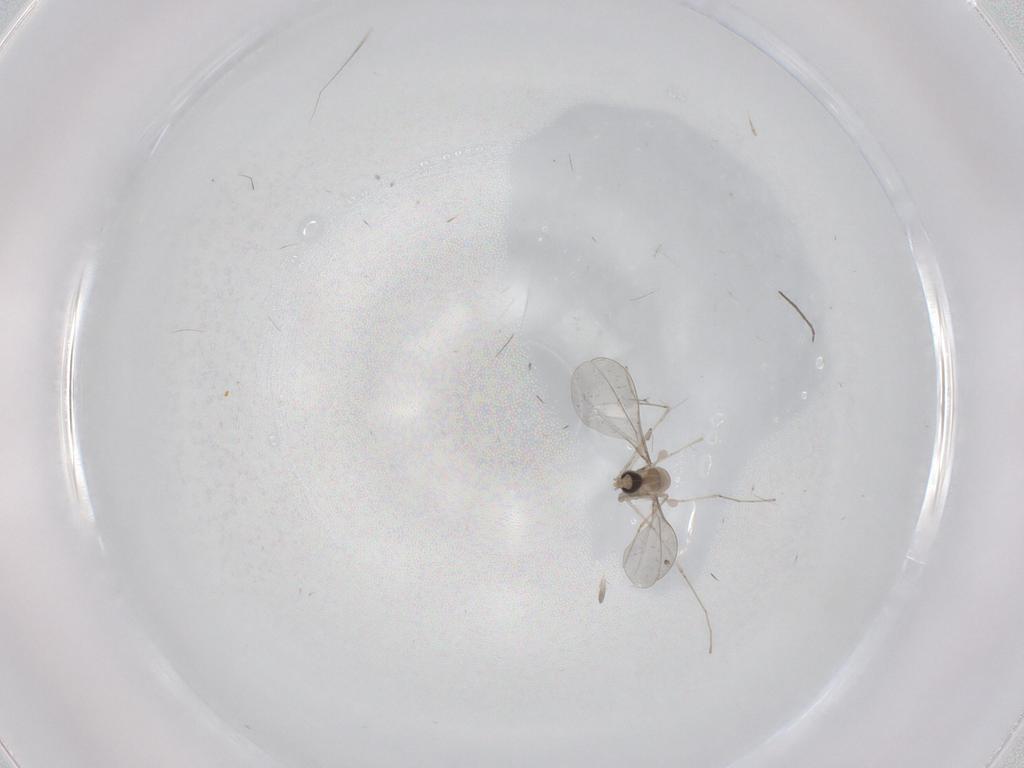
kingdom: Animalia
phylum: Arthropoda
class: Insecta
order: Diptera
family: Cecidomyiidae
